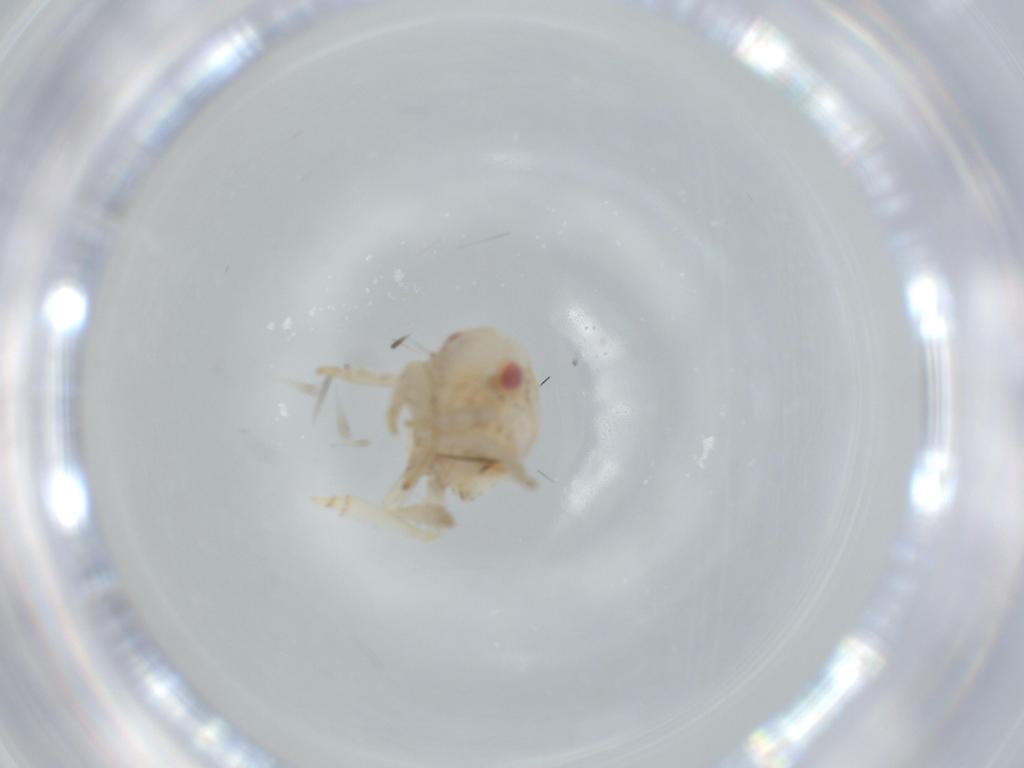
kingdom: Animalia
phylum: Arthropoda
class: Insecta
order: Hemiptera
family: Acanaloniidae
